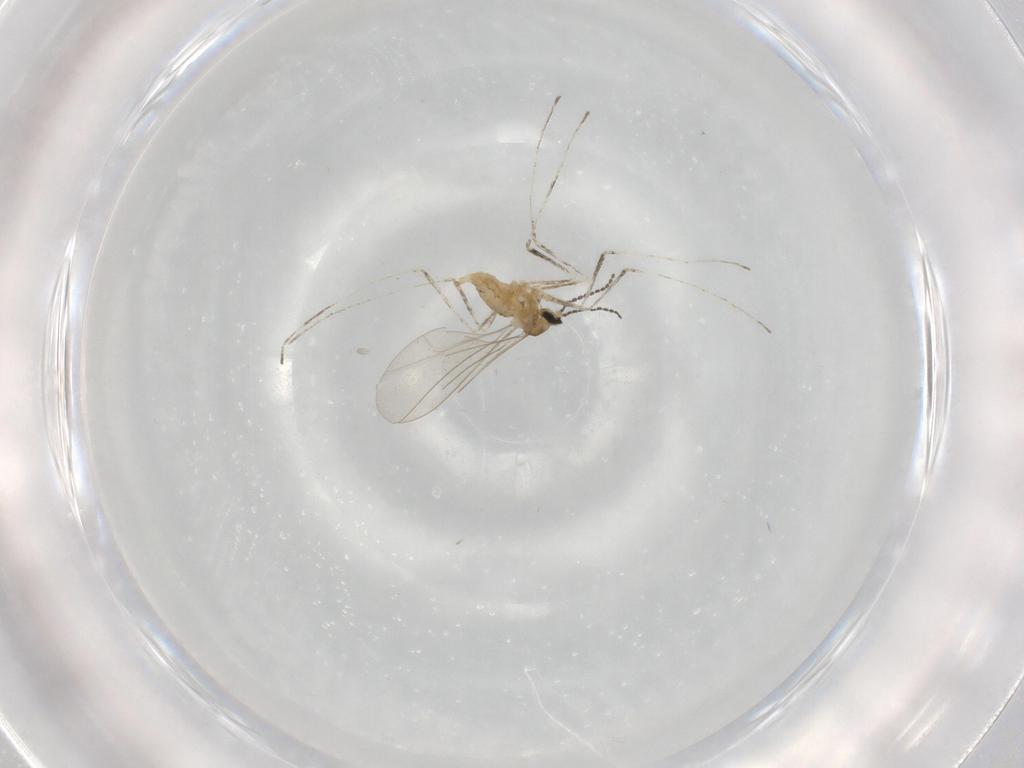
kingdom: Animalia
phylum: Arthropoda
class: Insecta
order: Diptera
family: Cecidomyiidae
